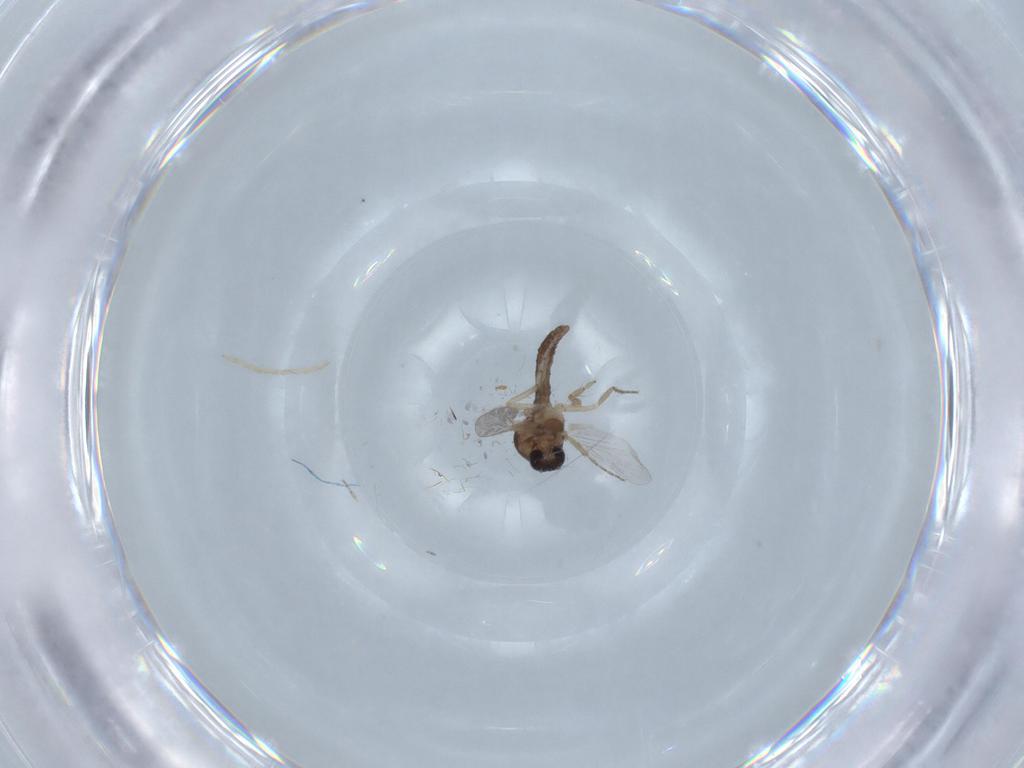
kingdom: Animalia
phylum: Arthropoda
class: Insecta
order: Diptera
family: Ceratopogonidae
